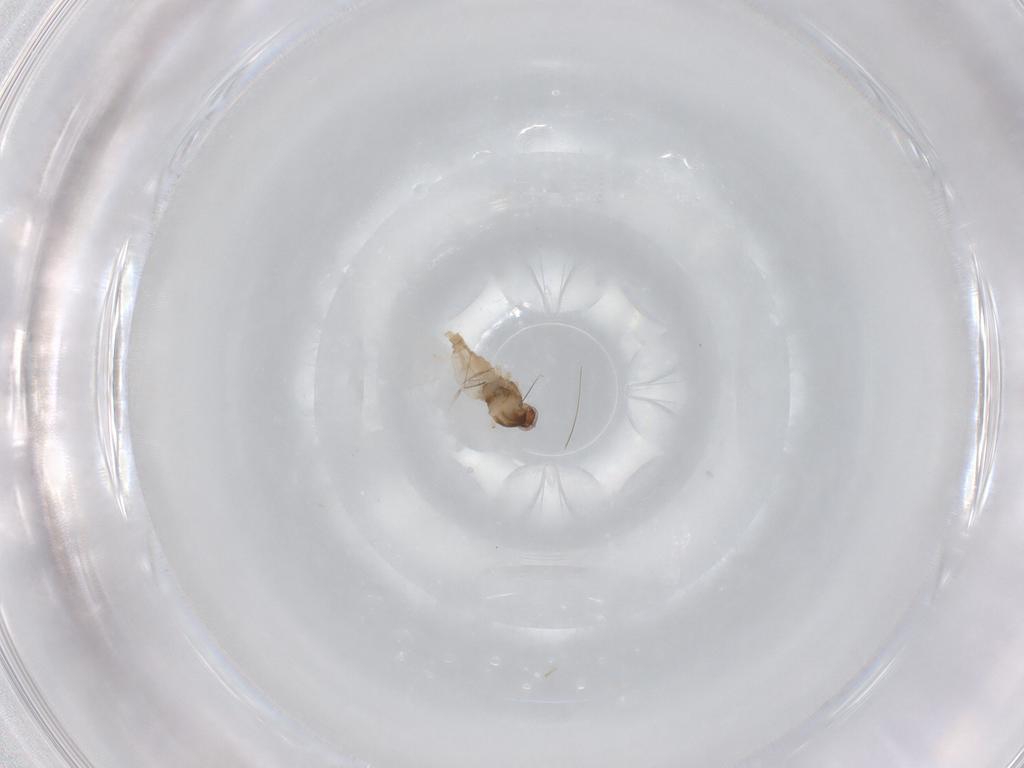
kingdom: Animalia
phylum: Arthropoda
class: Insecta
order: Diptera
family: Cecidomyiidae
